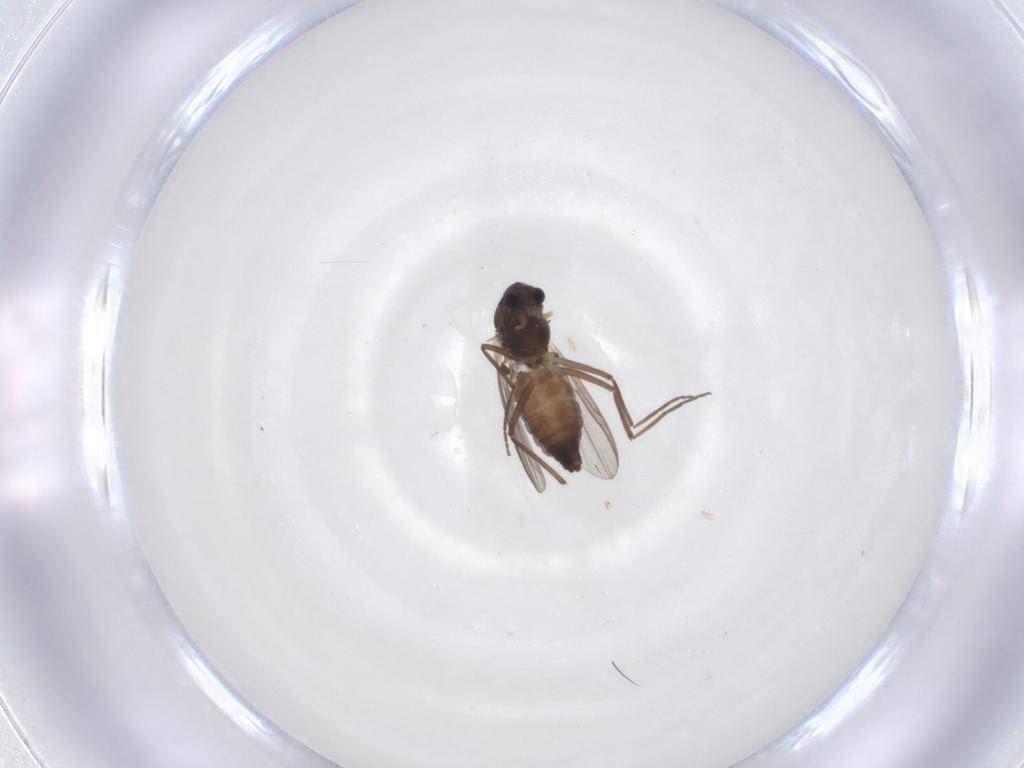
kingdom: Animalia
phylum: Arthropoda
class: Insecta
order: Diptera
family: Chironomidae
